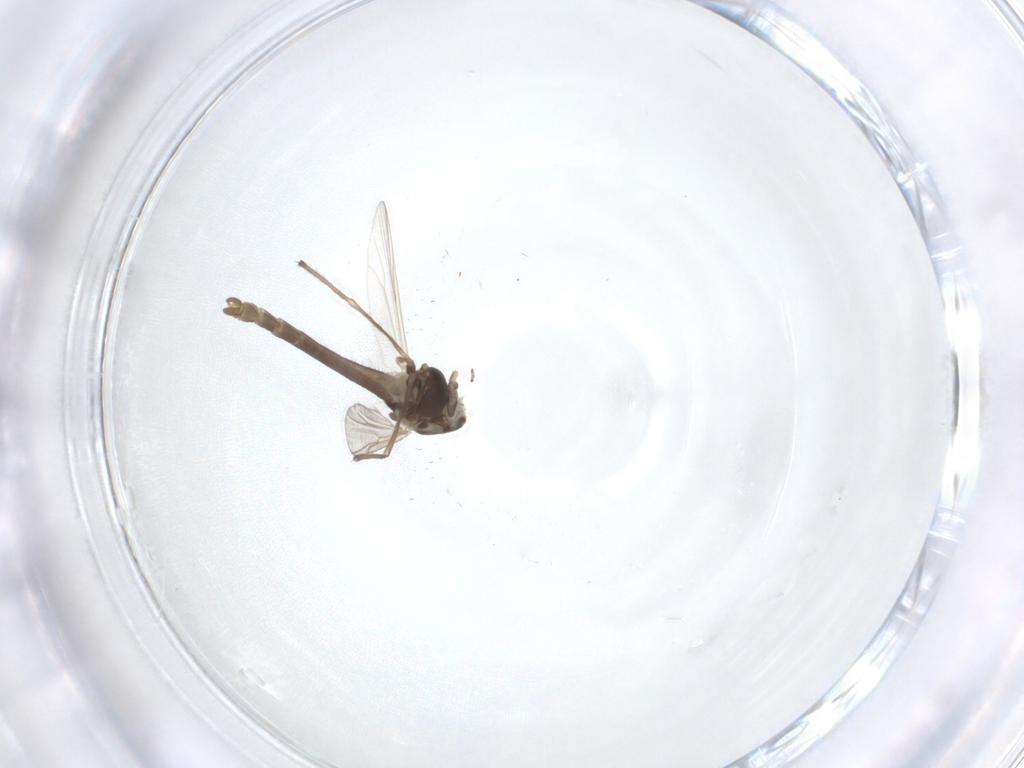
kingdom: Animalia
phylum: Arthropoda
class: Insecta
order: Diptera
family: Chironomidae
